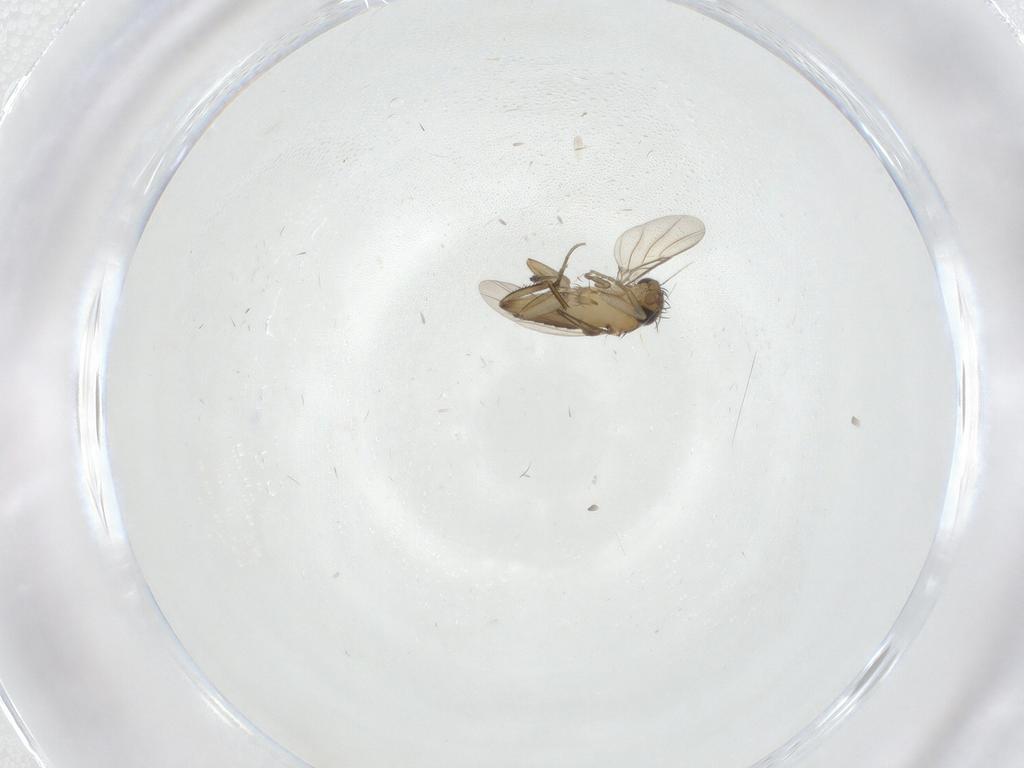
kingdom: Animalia
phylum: Arthropoda
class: Insecta
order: Diptera
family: Phoridae
